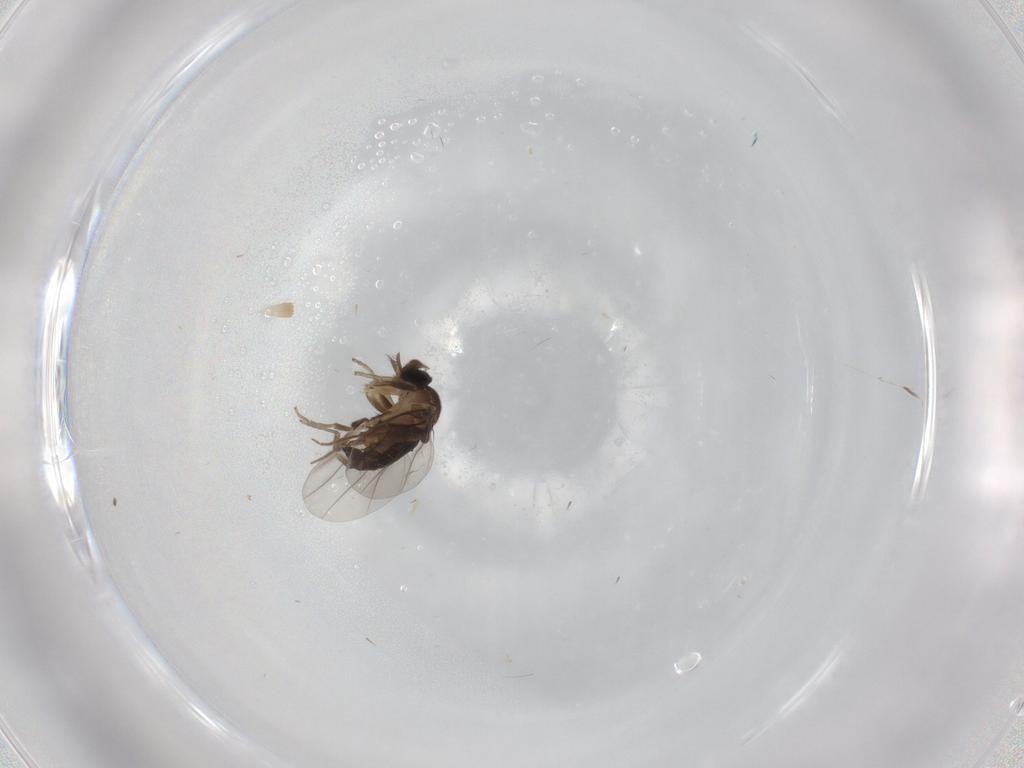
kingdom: Animalia
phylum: Arthropoda
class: Insecta
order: Diptera
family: Phoridae
